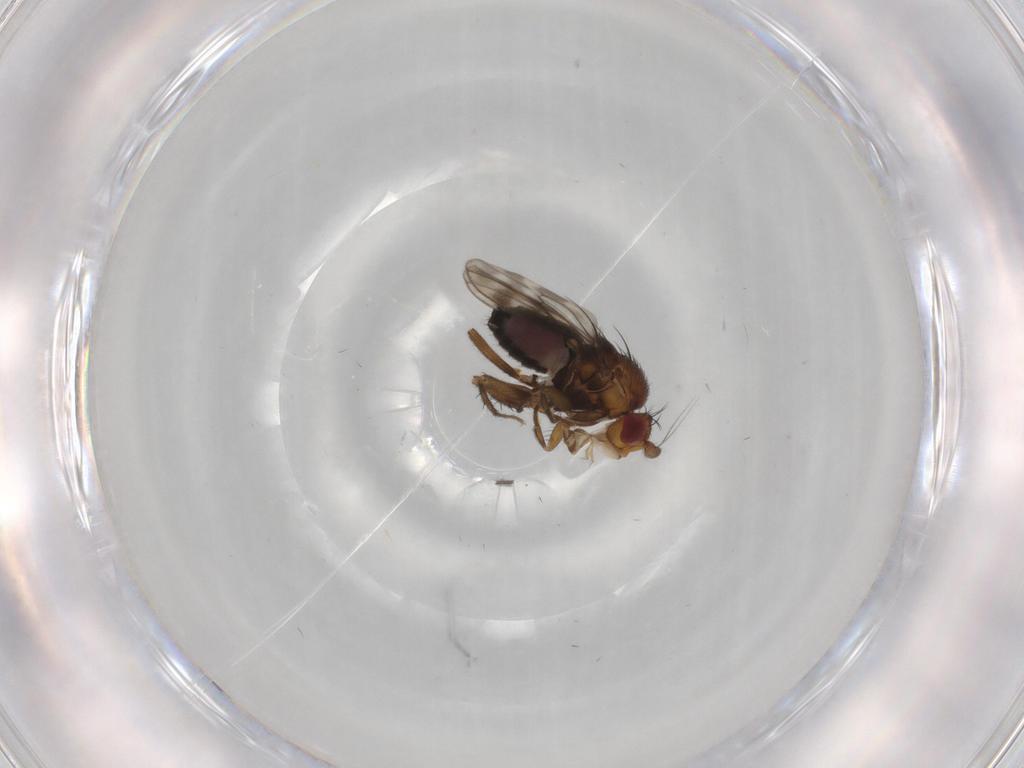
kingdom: Animalia
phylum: Arthropoda
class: Insecta
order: Diptera
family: Sphaeroceridae
